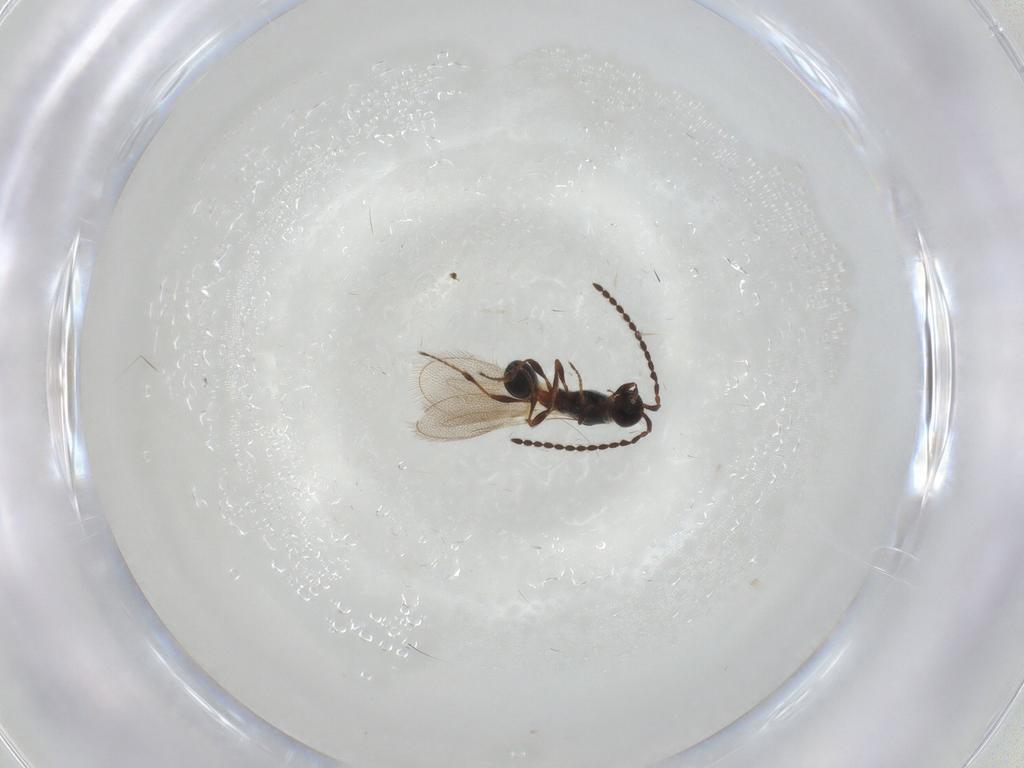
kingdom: Animalia
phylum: Arthropoda
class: Insecta
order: Hymenoptera
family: Diapriidae
